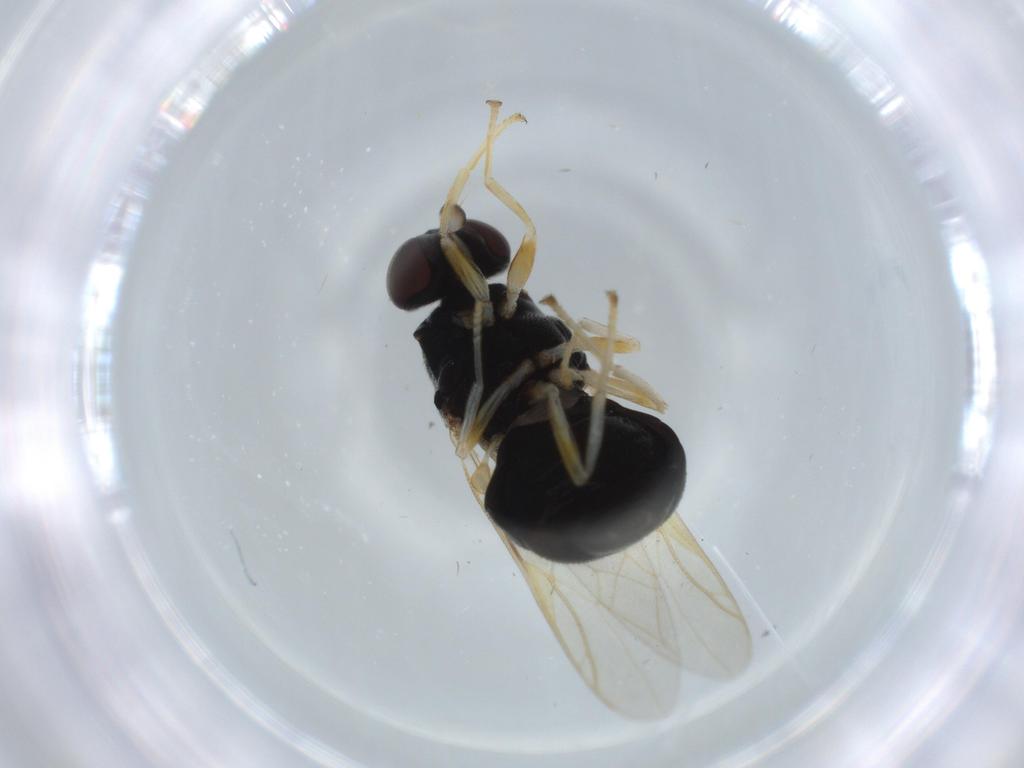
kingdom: Animalia
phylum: Arthropoda
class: Insecta
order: Diptera
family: Phoridae
